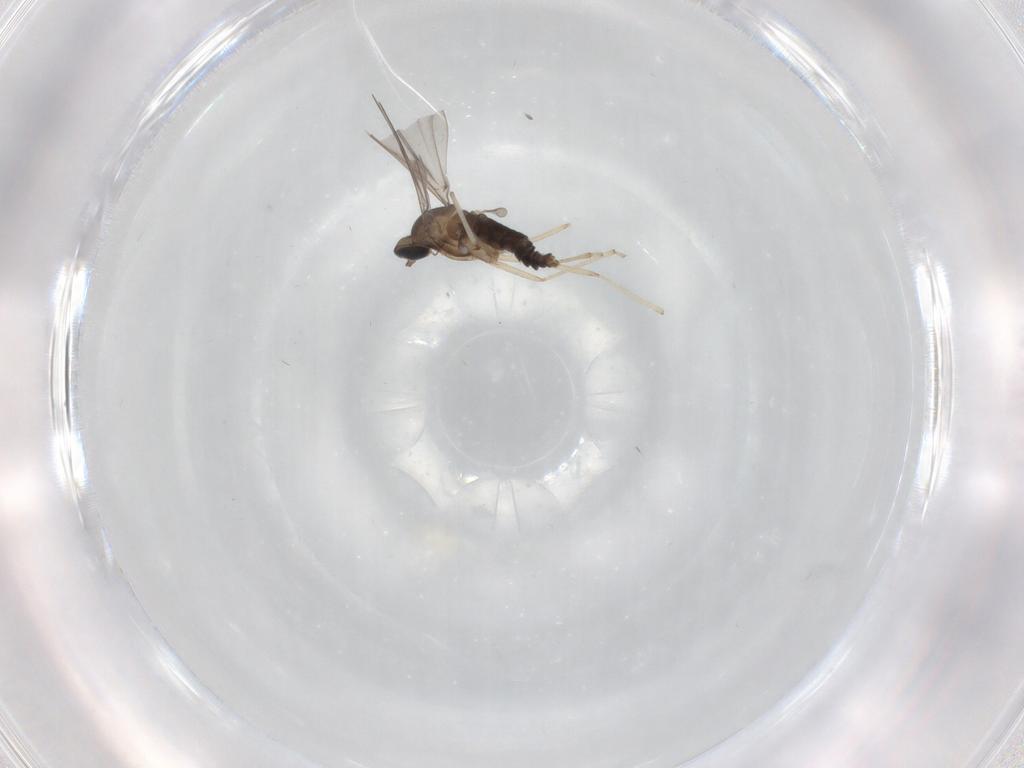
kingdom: Animalia
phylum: Arthropoda
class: Insecta
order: Diptera
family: Cecidomyiidae
